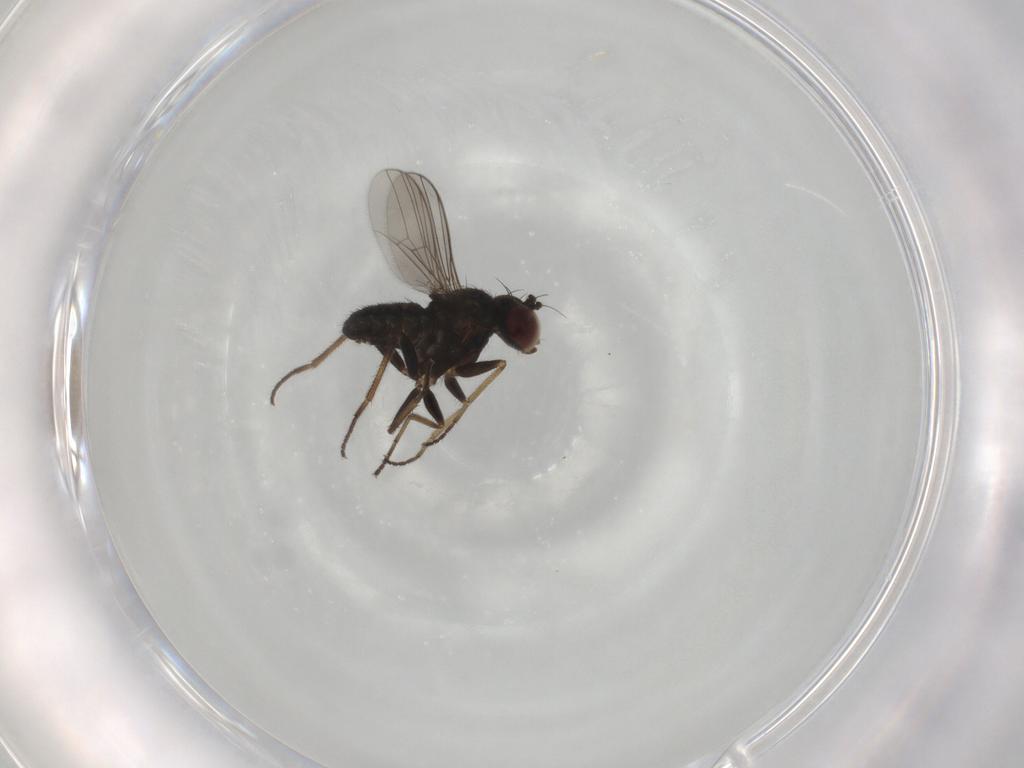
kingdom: Animalia
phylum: Arthropoda
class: Insecta
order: Diptera
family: Dolichopodidae
